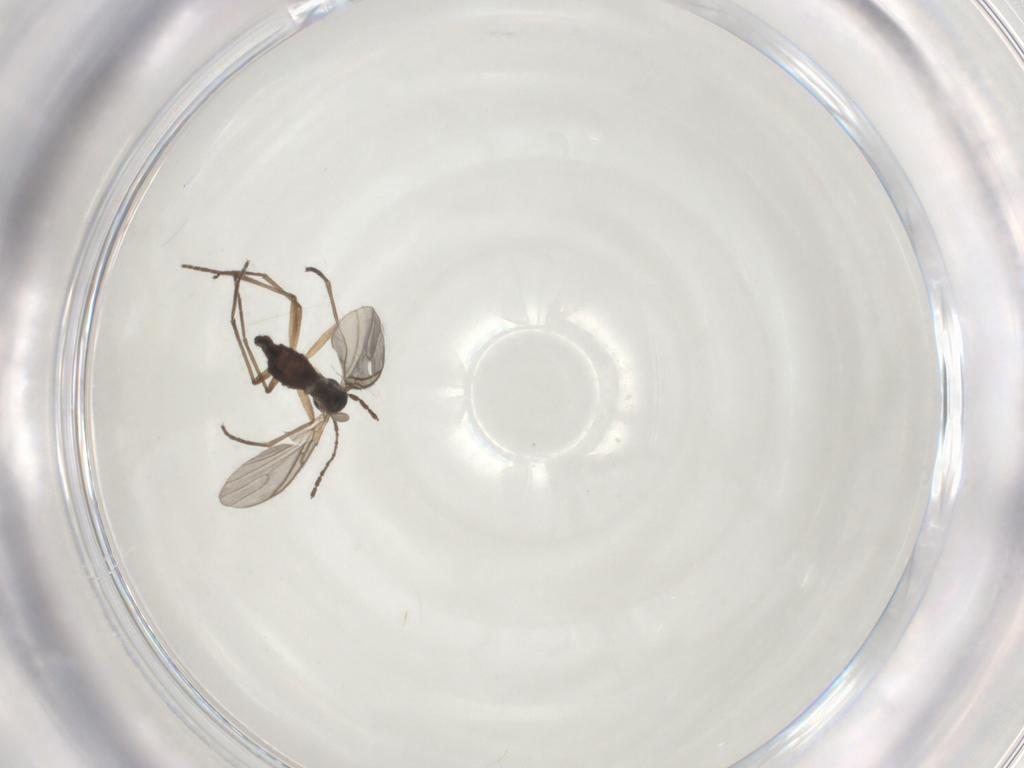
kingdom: Animalia
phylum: Arthropoda
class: Insecta
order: Diptera
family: Sciaridae
